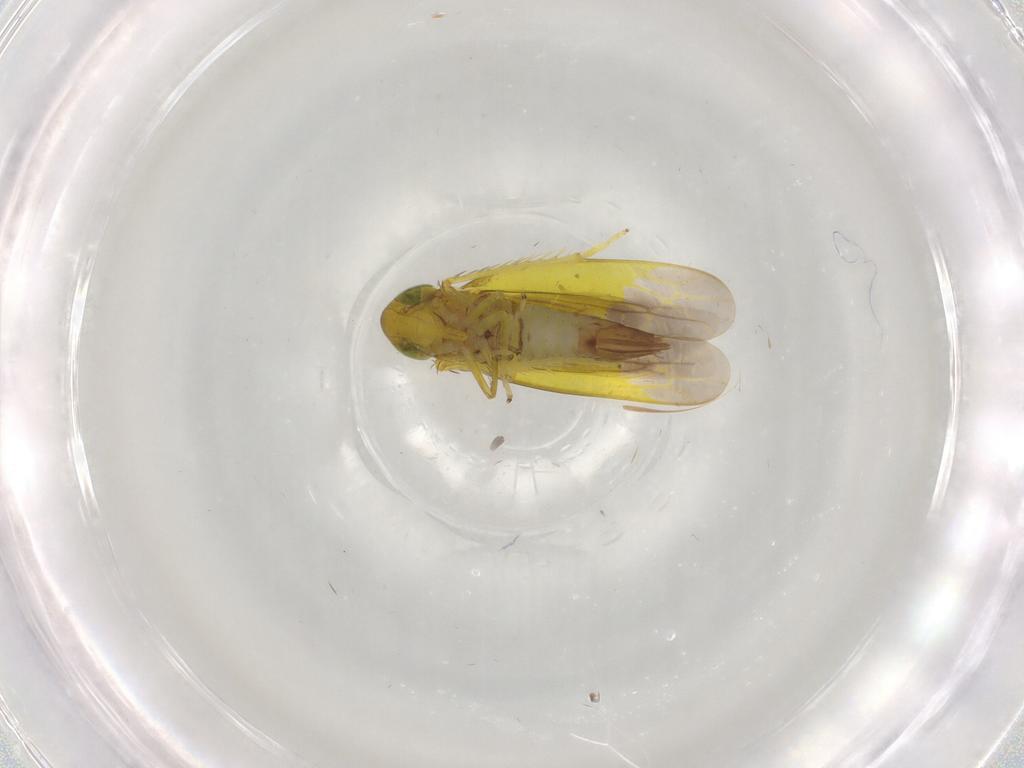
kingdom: Animalia
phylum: Arthropoda
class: Insecta
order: Hemiptera
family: Cicadellidae
